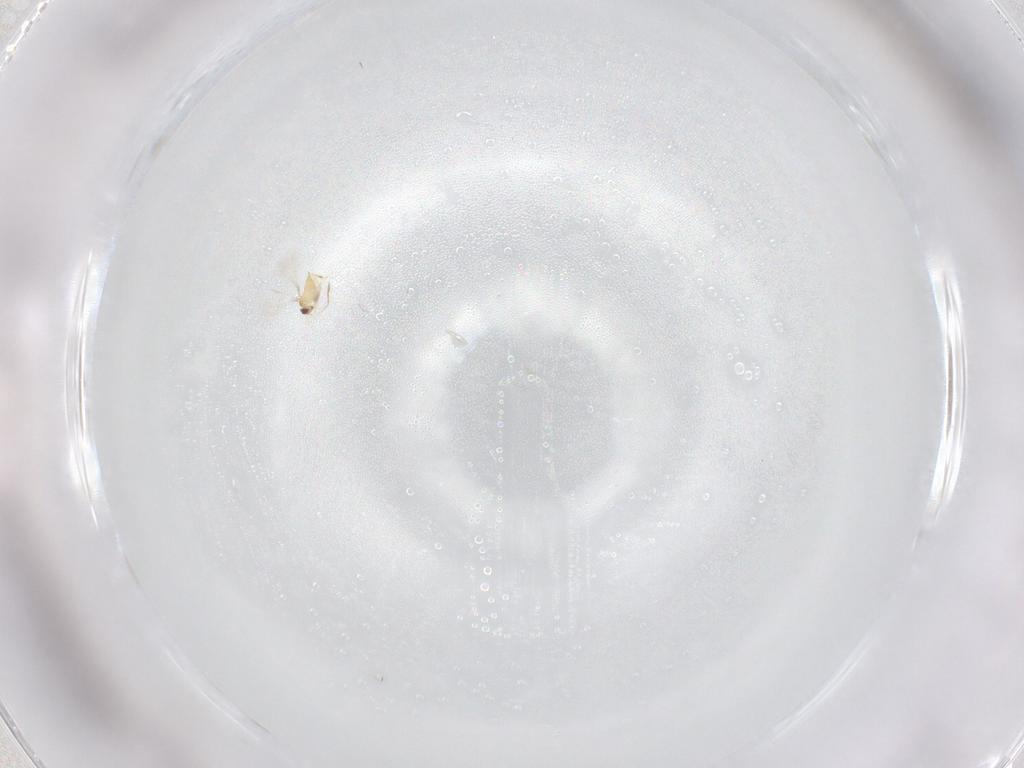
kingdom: Animalia
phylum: Arthropoda
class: Insecta
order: Hymenoptera
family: Mymaridae
